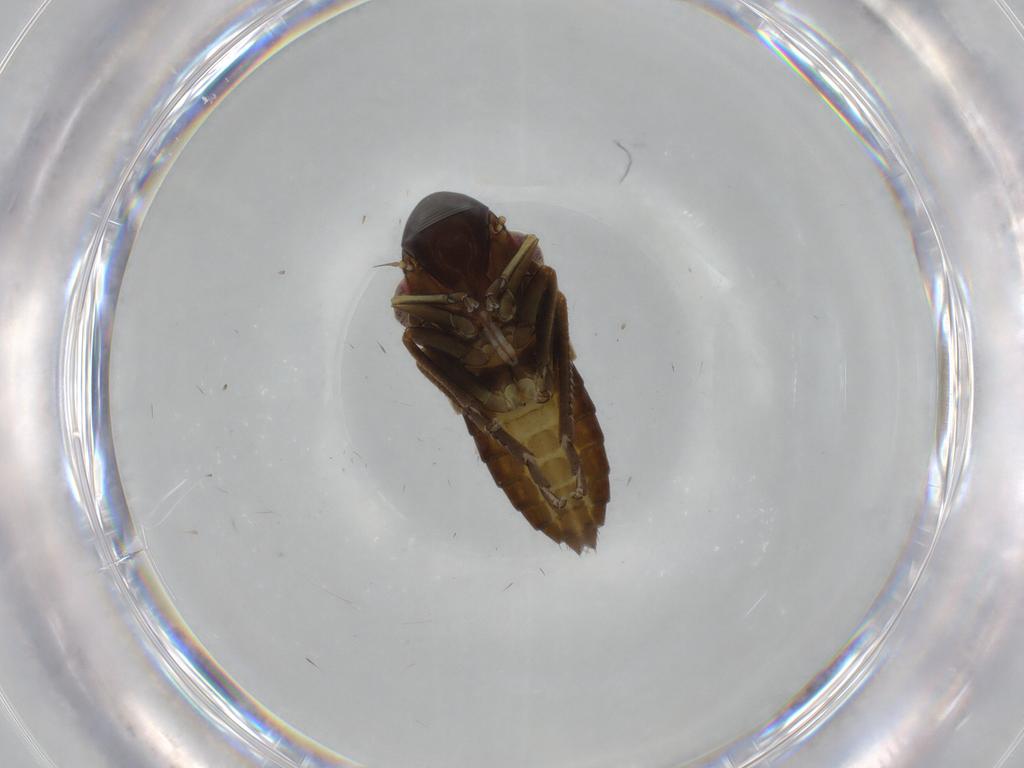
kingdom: Animalia
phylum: Arthropoda
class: Insecta
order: Hemiptera
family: Cicadellidae
